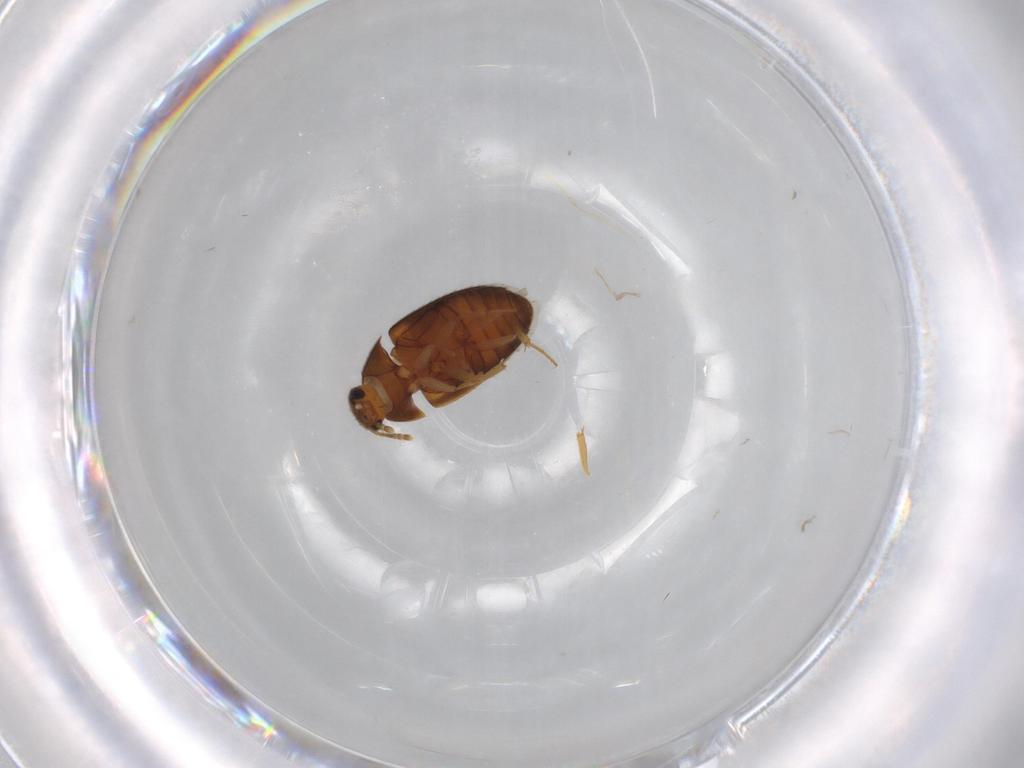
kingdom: Animalia
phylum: Arthropoda
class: Insecta
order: Coleoptera
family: Mycetophagidae
